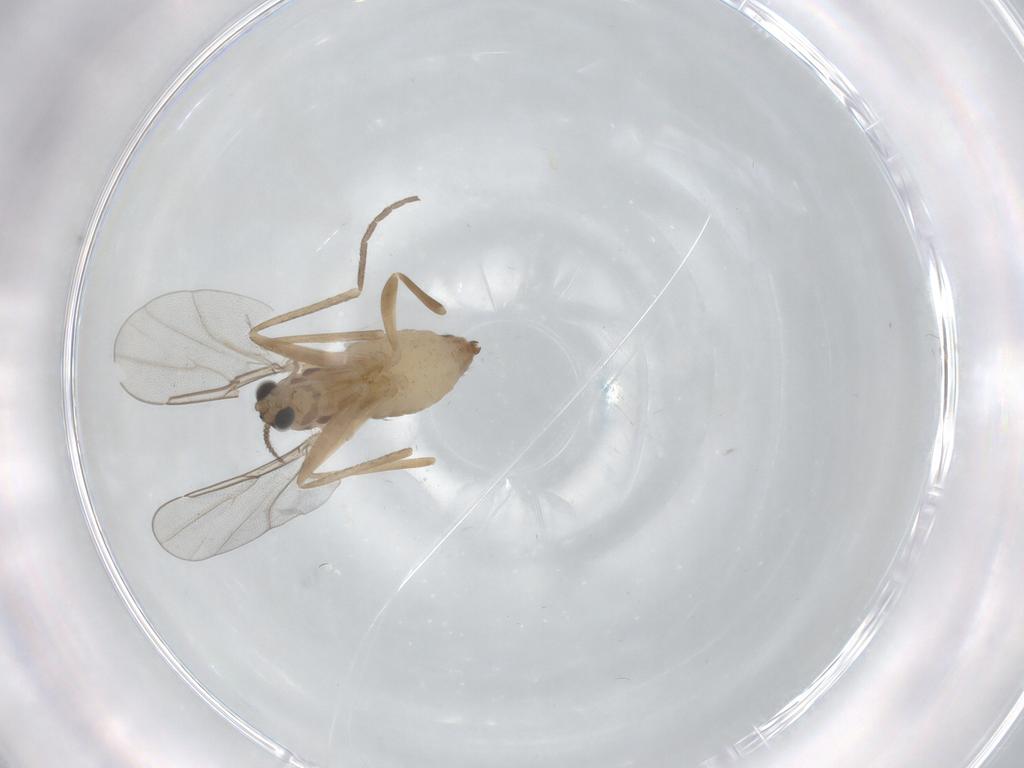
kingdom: Animalia
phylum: Arthropoda
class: Insecta
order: Diptera
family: Cecidomyiidae
